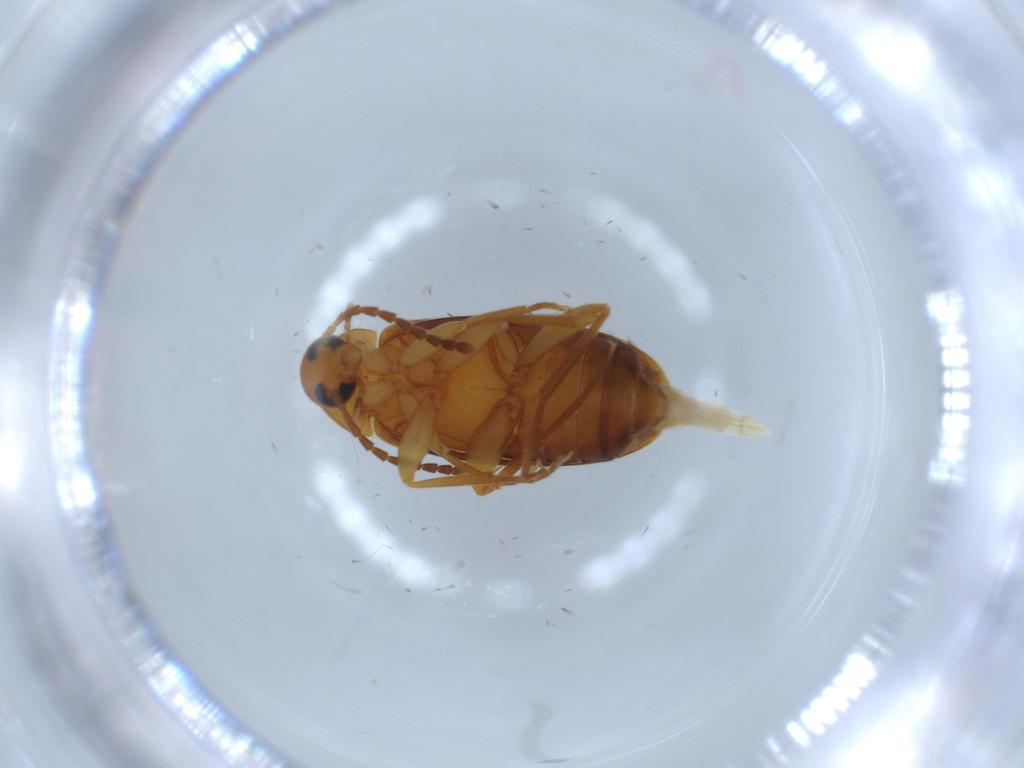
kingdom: Animalia
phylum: Arthropoda
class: Insecta
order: Coleoptera
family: Scraptiidae
